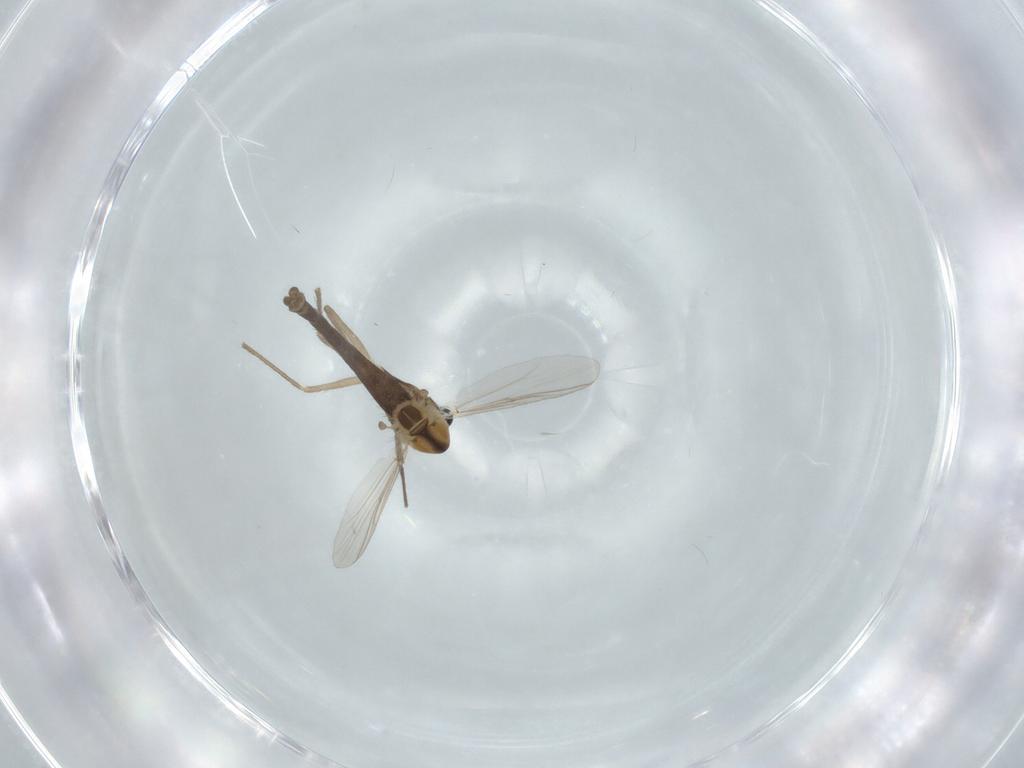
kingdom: Animalia
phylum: Arthropoda
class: Insecta
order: Diptera
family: Chironomidae
